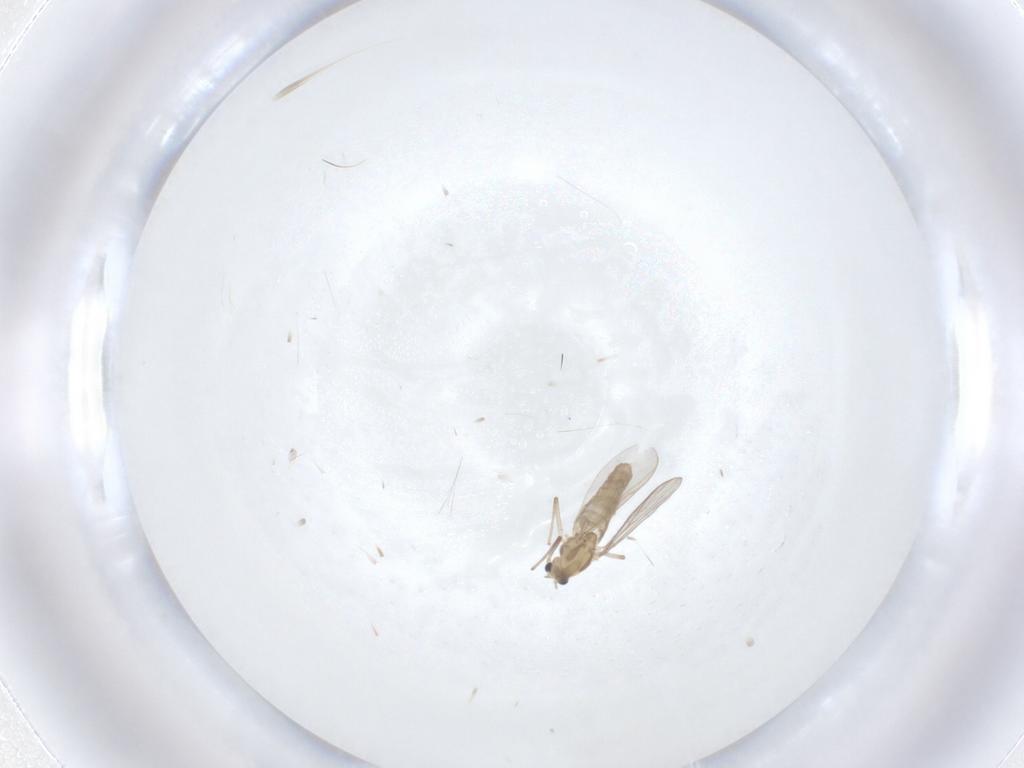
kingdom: Animalia
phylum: Arthropoda
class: Insecta
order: Diptera
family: Chironomidae
